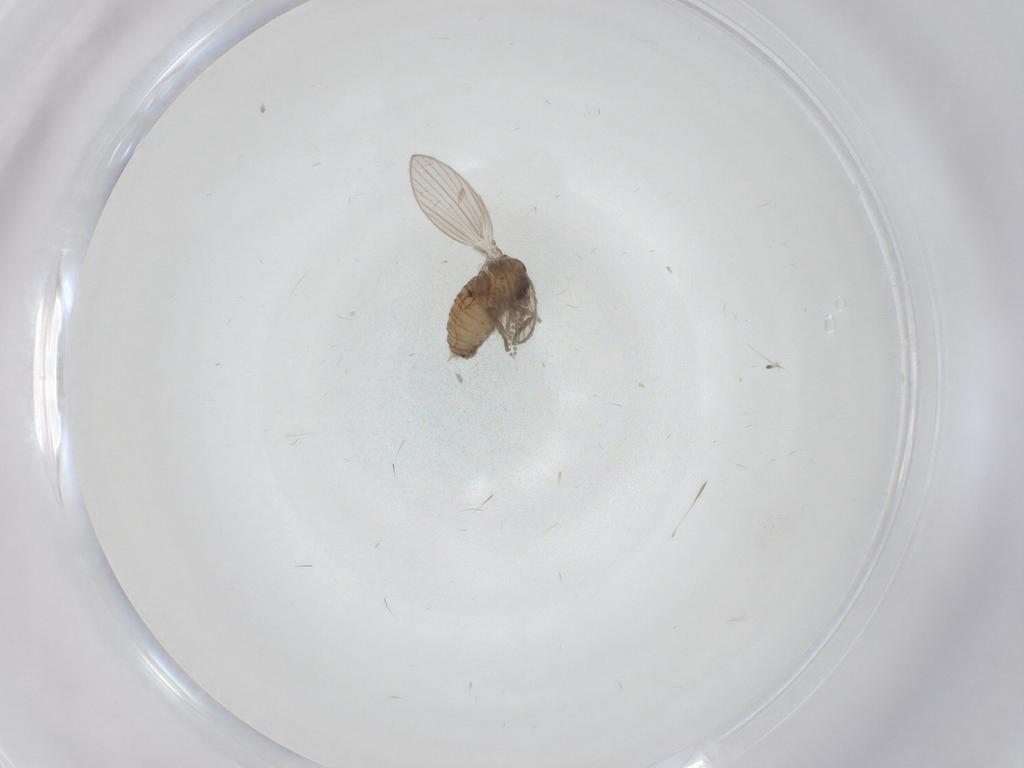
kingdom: Animalia
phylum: Arthropoda
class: Insecta
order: Diptera
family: Psychodidae
